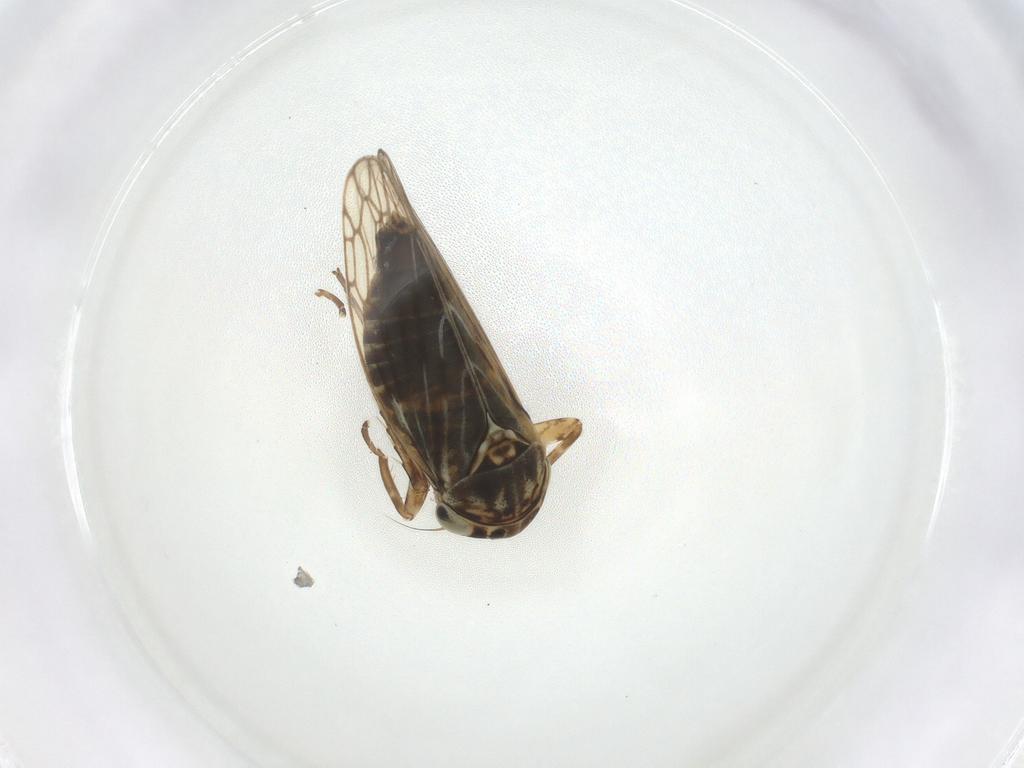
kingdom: Animalia
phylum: Arthropoda
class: Insecta
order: Hemiptera
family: Cicadellidae
